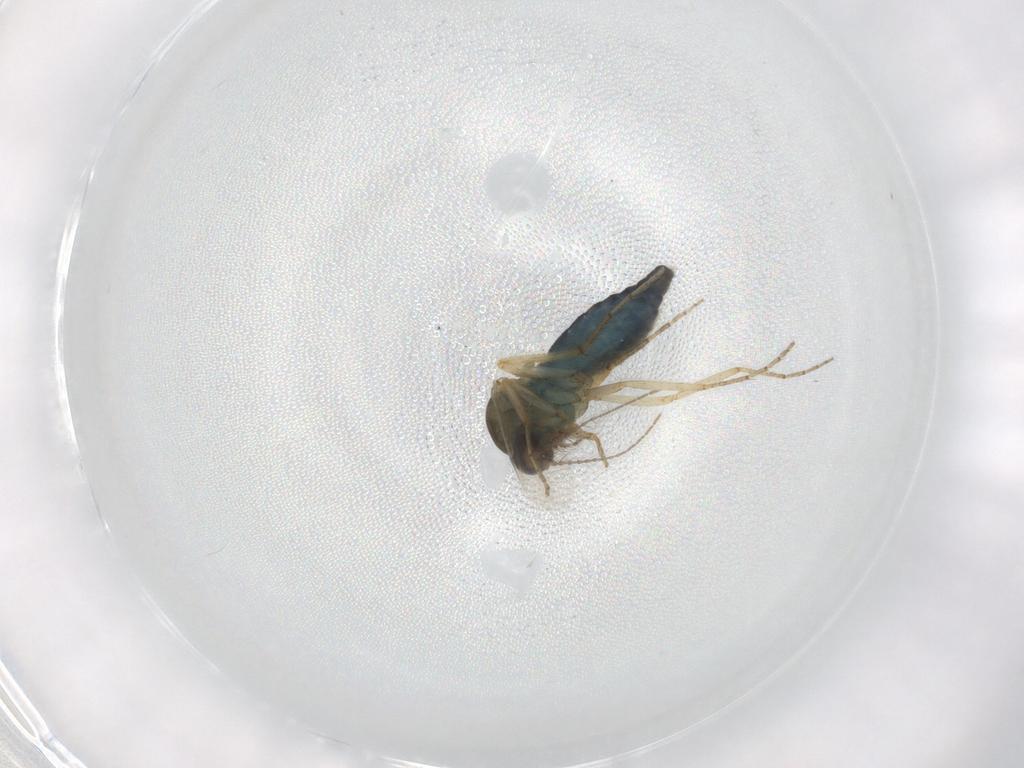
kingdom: Animalia
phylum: Arthropoda
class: Insecta
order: Diptera
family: Ceratopogonidae
